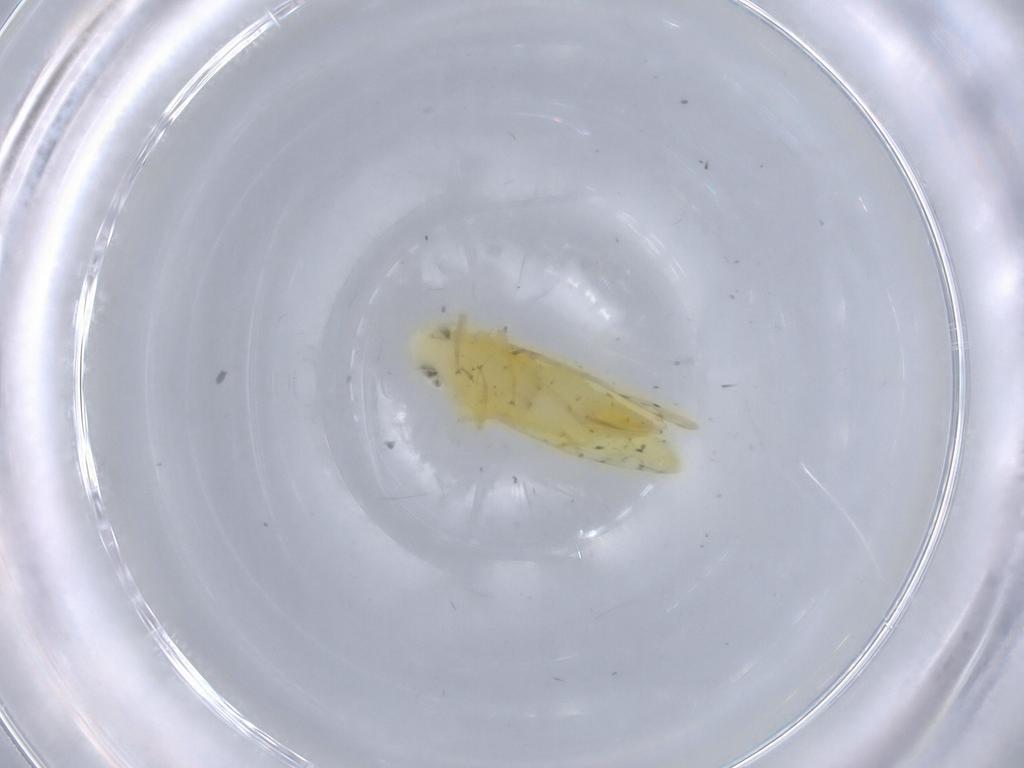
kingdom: Animalia
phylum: Arthropoda
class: Insecta
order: Hemiptera
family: Cicadellidae
